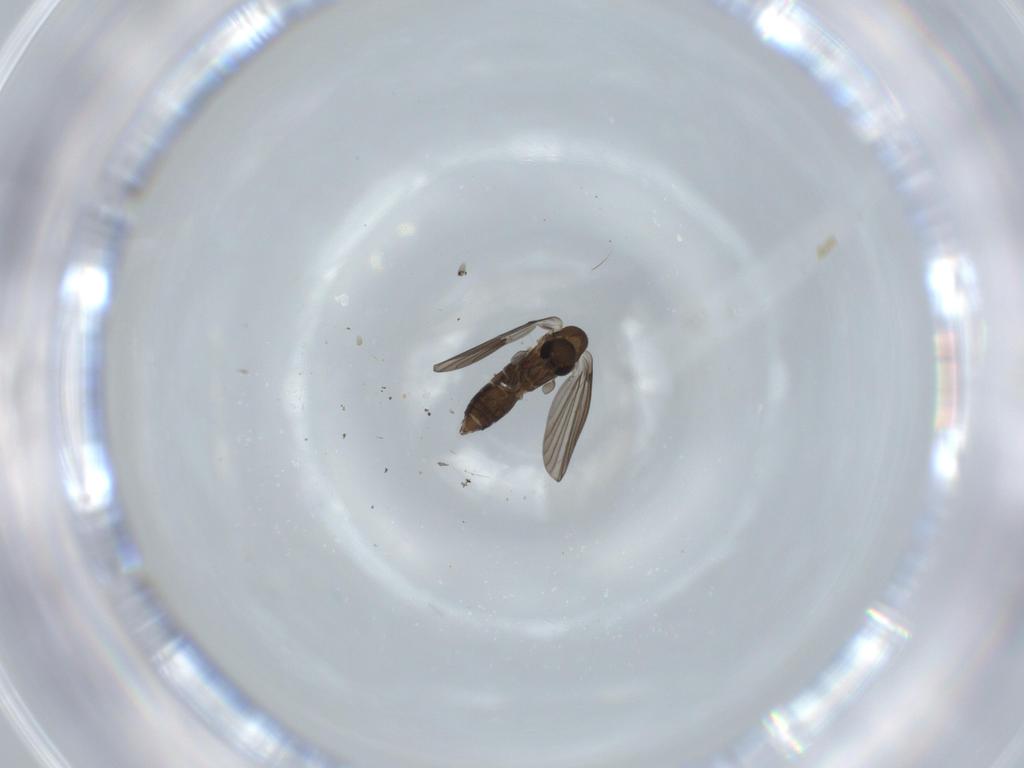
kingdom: Animalia
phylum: Arthropoda
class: Insecta
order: Diptera
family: Cecidomyiidae
